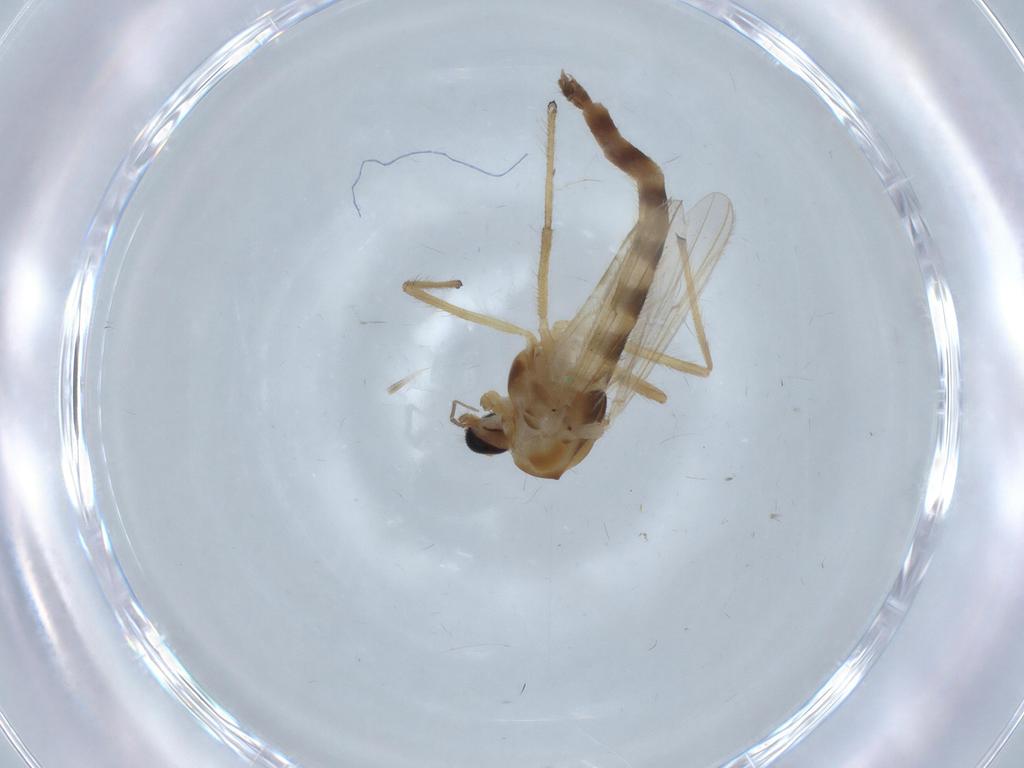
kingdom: Animalia
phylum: Arthropoda
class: Insecta
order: Diptera
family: Chironomidae
